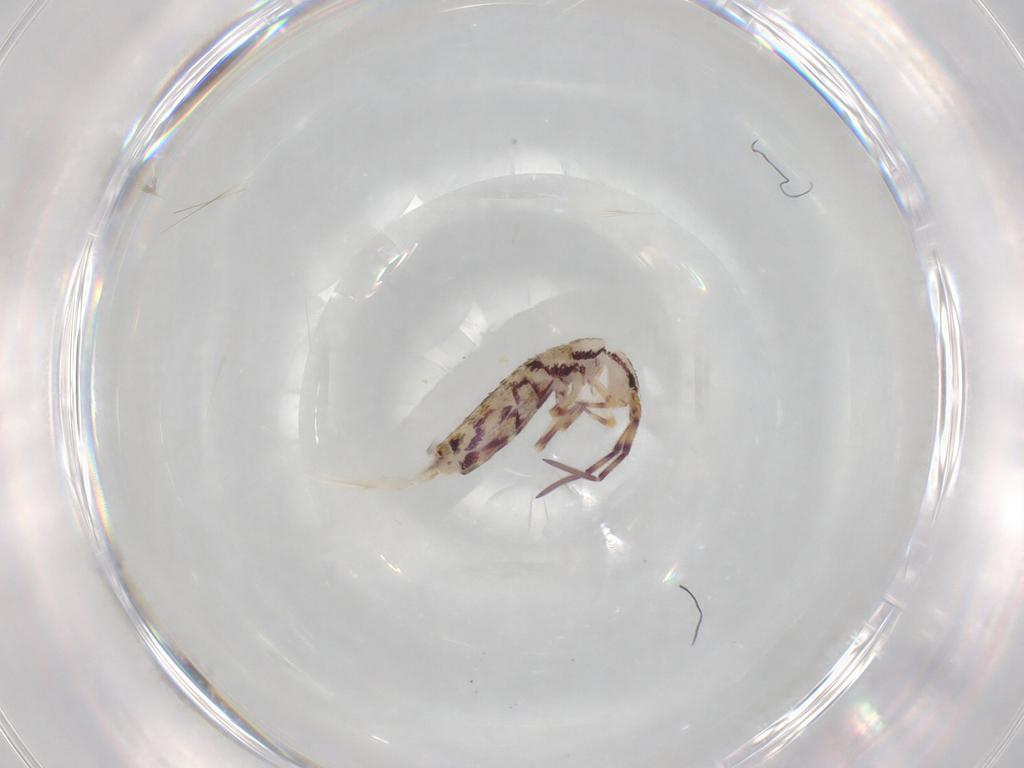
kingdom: Animalia
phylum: Arthropoda
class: Collembola
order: Entomobryomorpha
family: Entomobryidae
